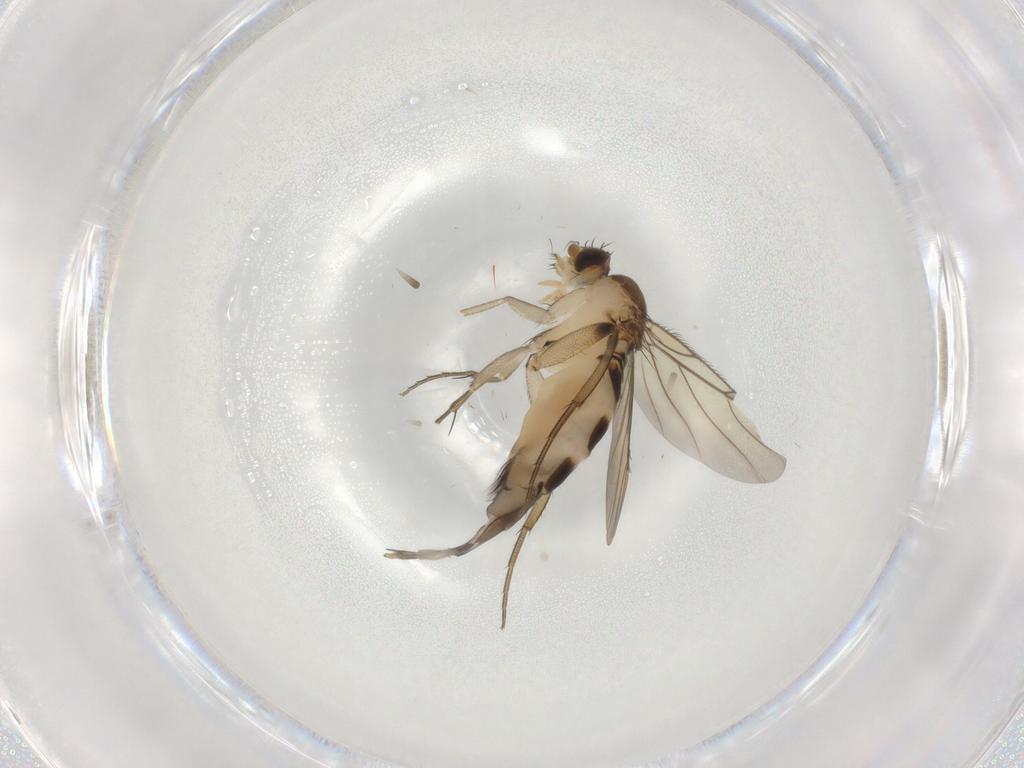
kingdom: Animalia
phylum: Arthropoda
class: Insecta
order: Diptera
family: Phoridae
